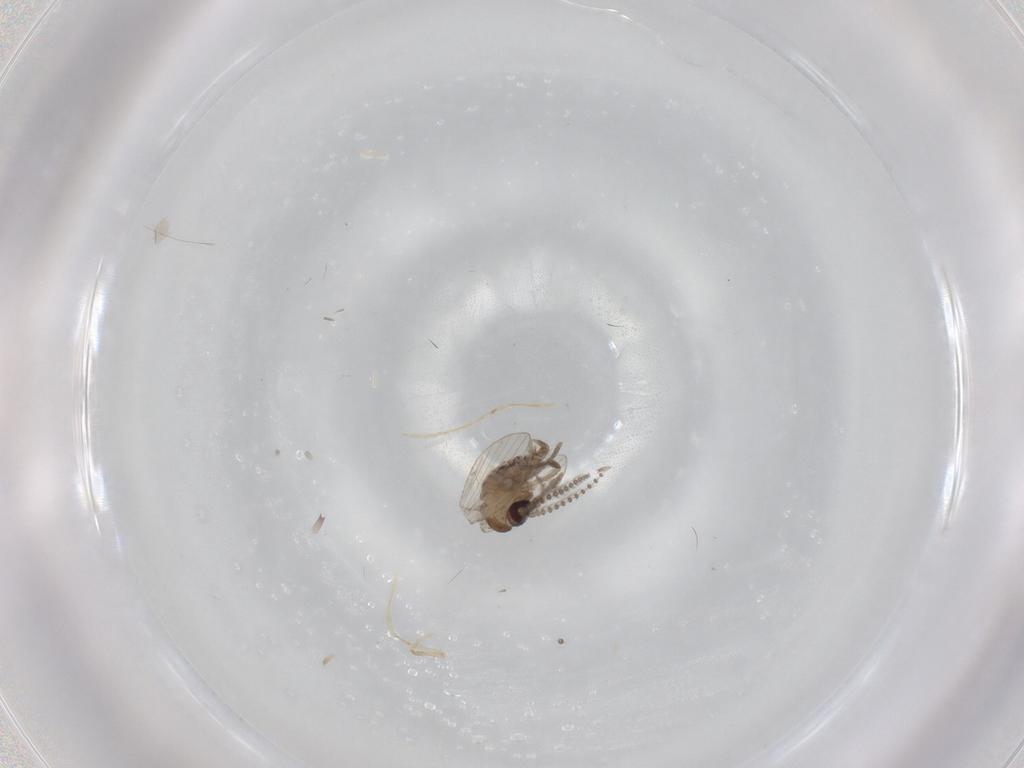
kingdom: Animalia
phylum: Arthropoda
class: Insecta
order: Diptera
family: Psychodidae
